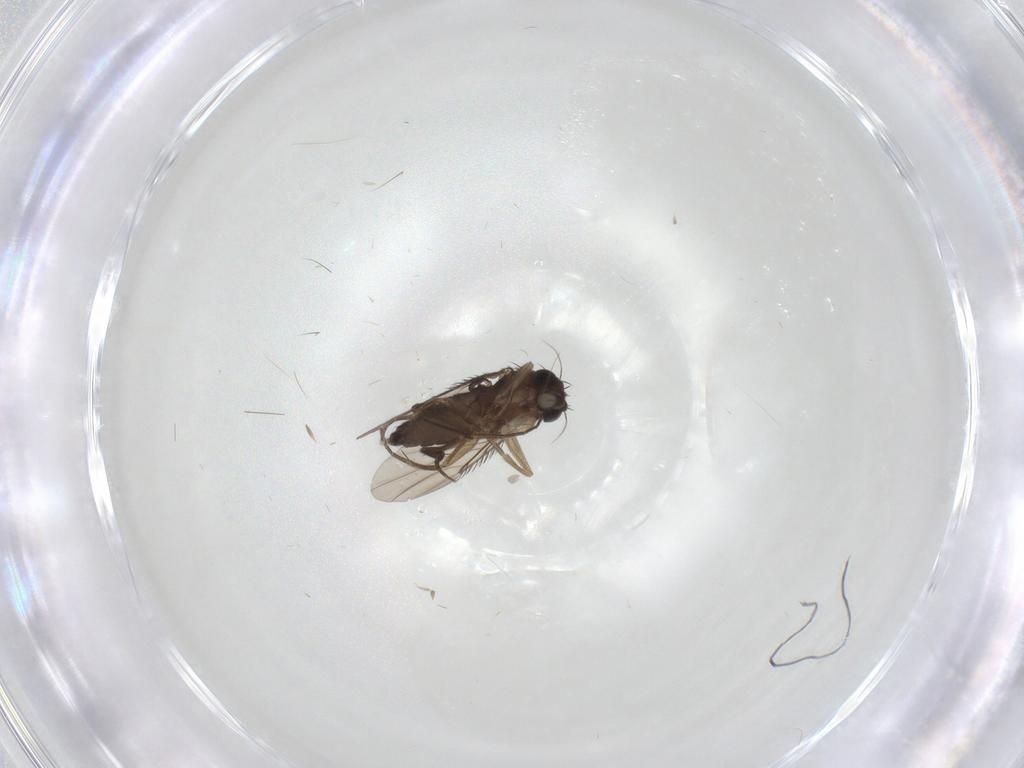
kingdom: Animalia
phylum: Arthropoda
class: Insecta
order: Diptera
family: Phoridae
